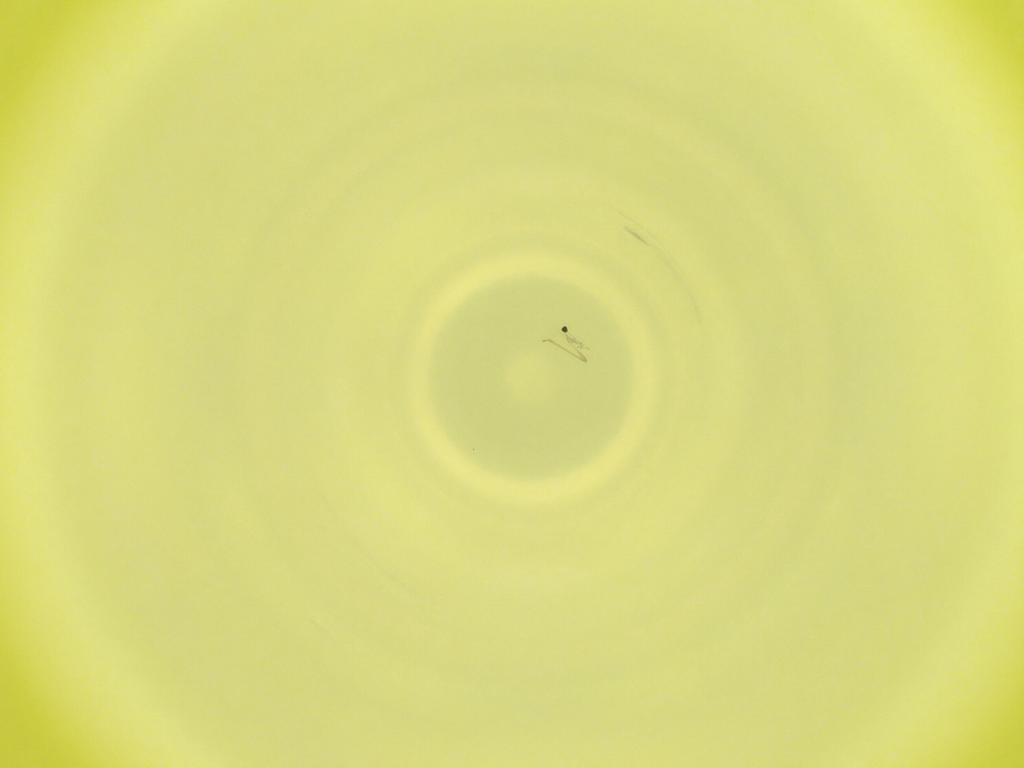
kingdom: Animalia
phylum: Arthropoda
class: Insecta
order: Diptera
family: Cecidomyiidae
